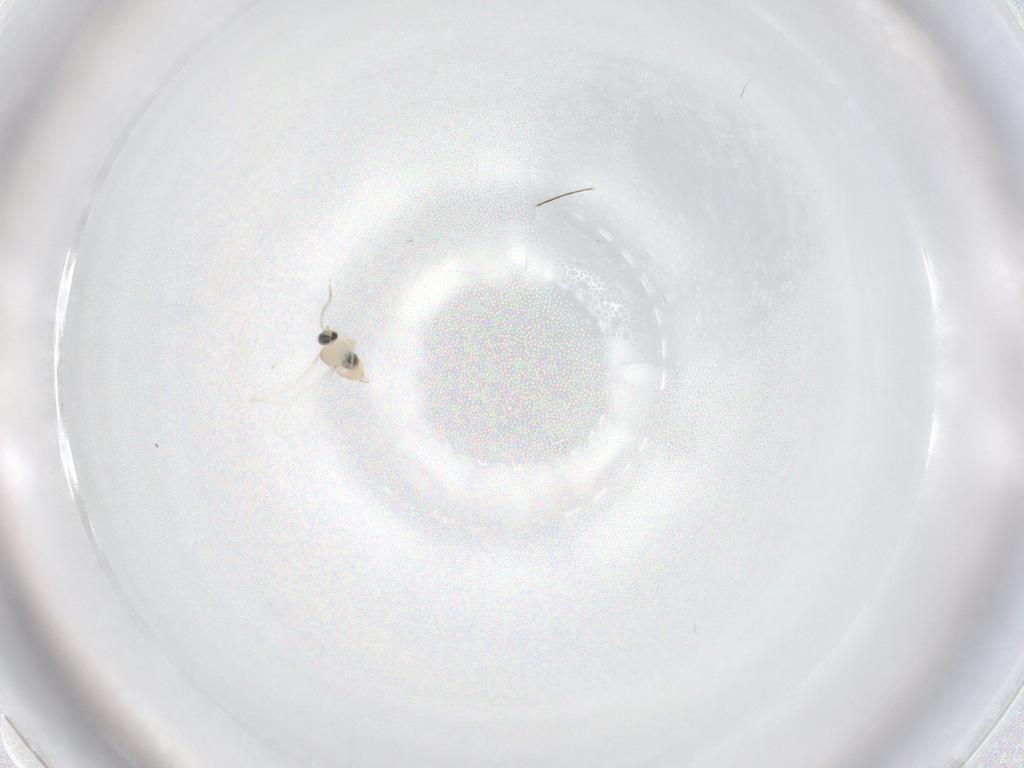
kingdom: Animalia
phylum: Arthropoda
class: Insecta
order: Diptera
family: Cecidomyiidae
